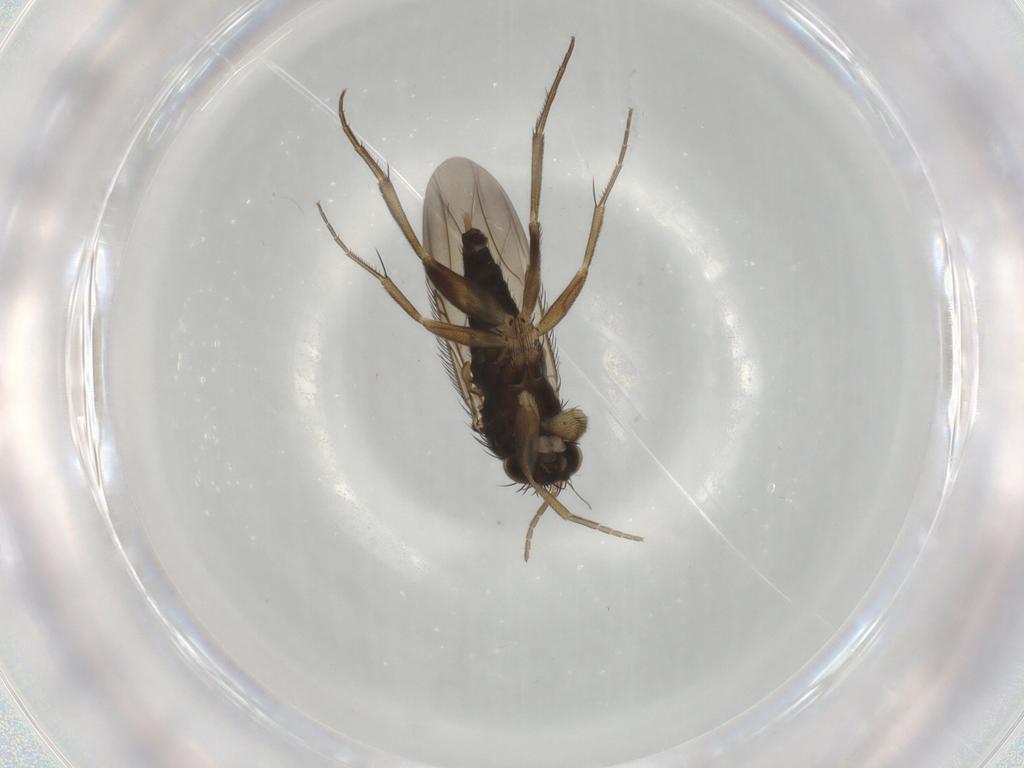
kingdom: Animalia
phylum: Arthropoda
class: Insecta
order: Diptera
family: Phoridae
